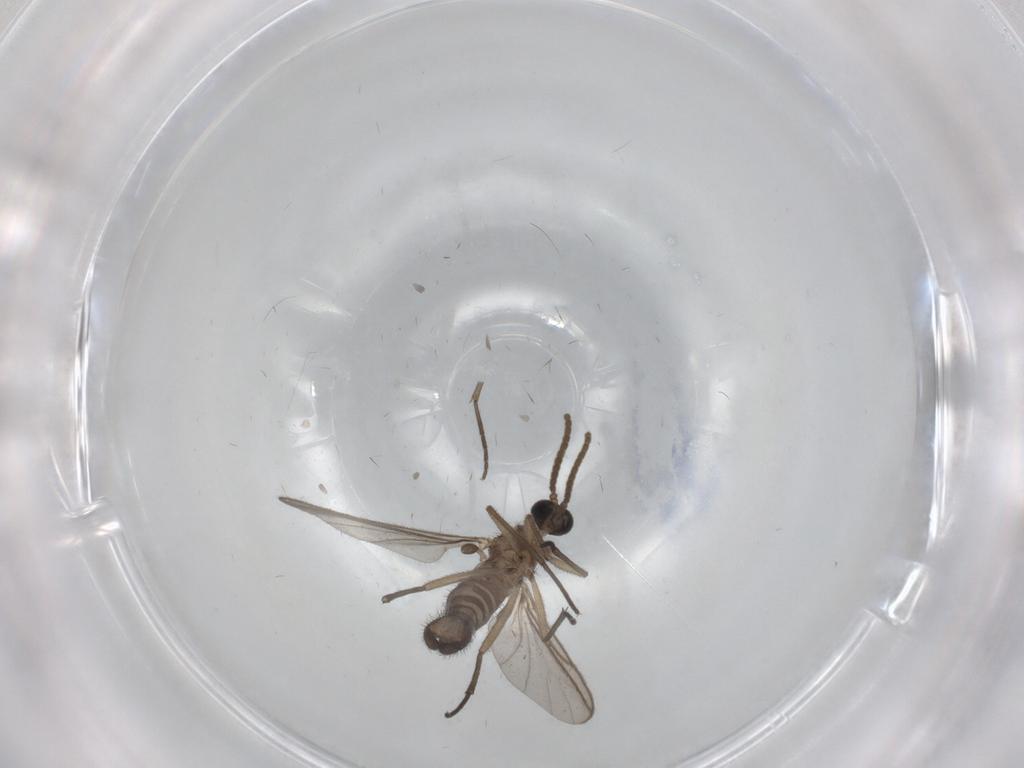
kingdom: Animalia
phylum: Arthropoda
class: Insecta
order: Diptera
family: Sciaridae
